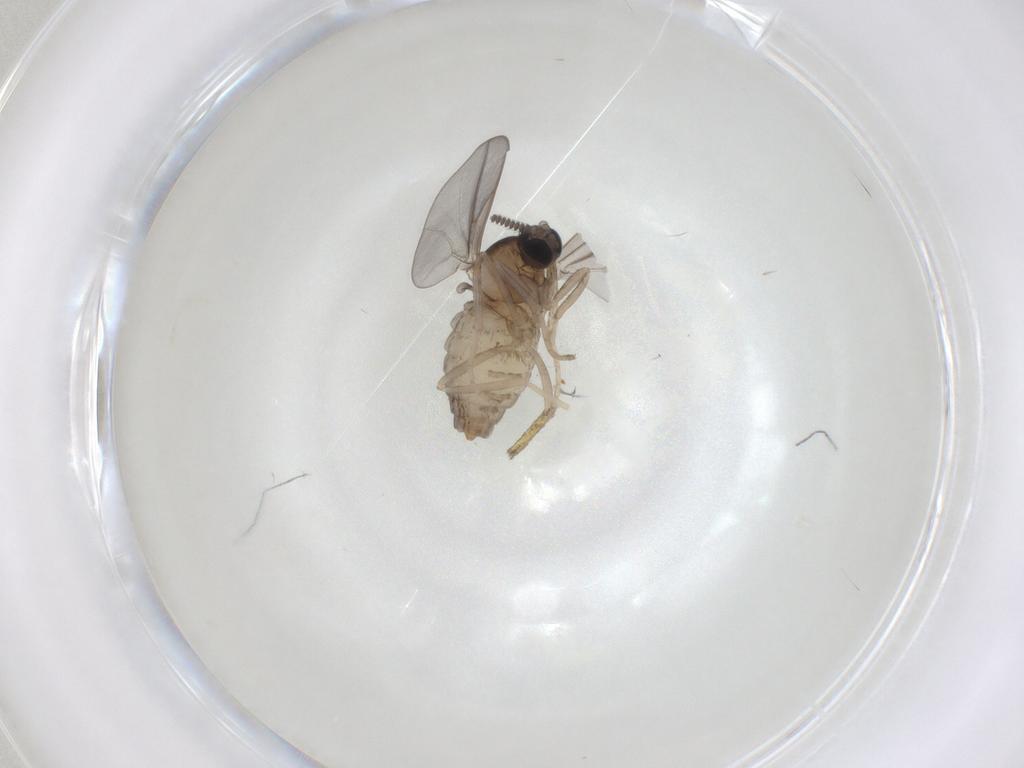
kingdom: Animalia
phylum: Arthropoda
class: Insecta
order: Diptera
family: Cecidomyiidae
